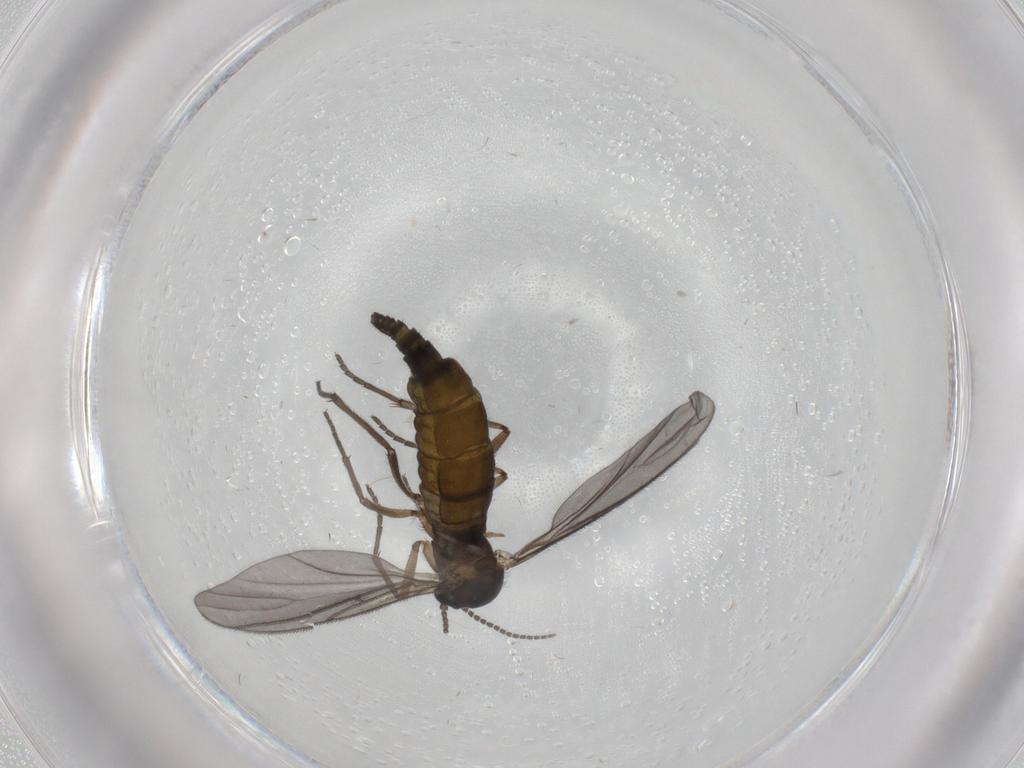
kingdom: Animalia
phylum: Arthropoda
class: Insecta
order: Diptera
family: Sciaridae
